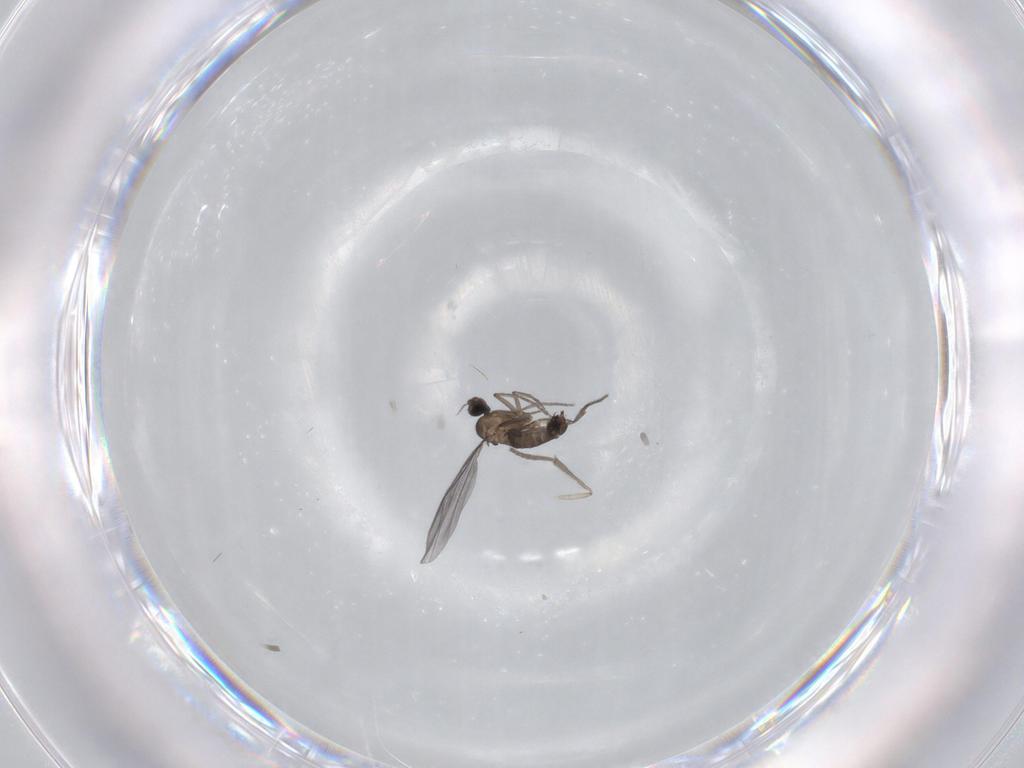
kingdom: Animalia
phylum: Arthropoda
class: Insecta
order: Diptera
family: Psychodidae
